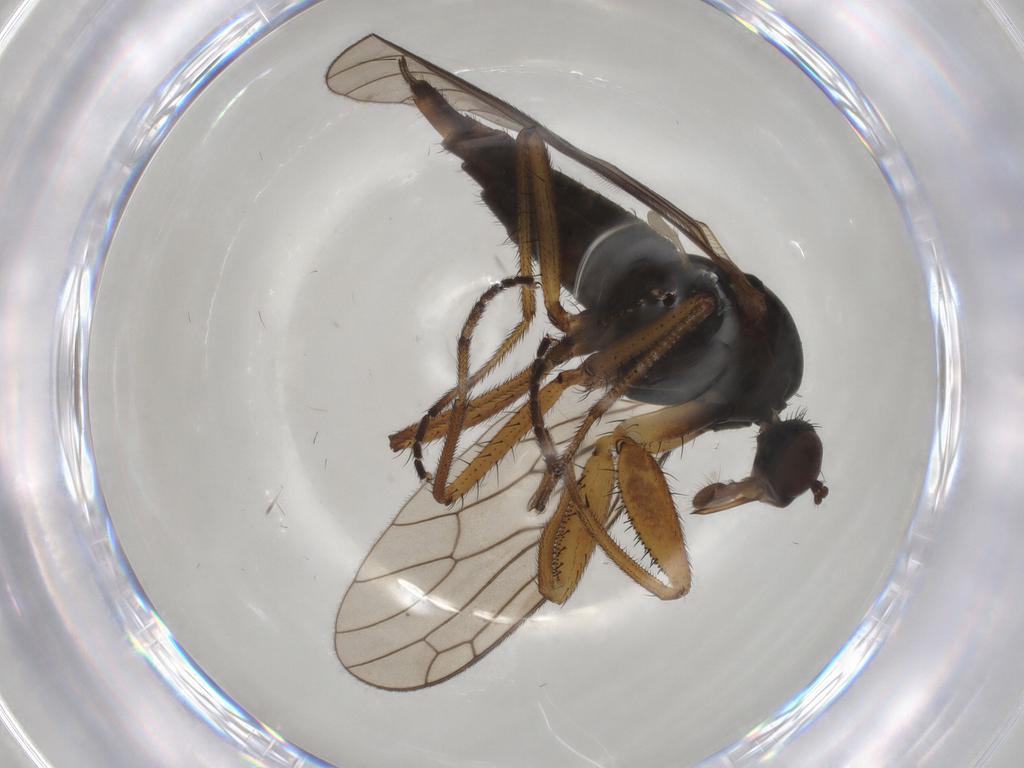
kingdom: Animalia
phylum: Arthropoda
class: Insecta
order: Diptera
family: Empididae
